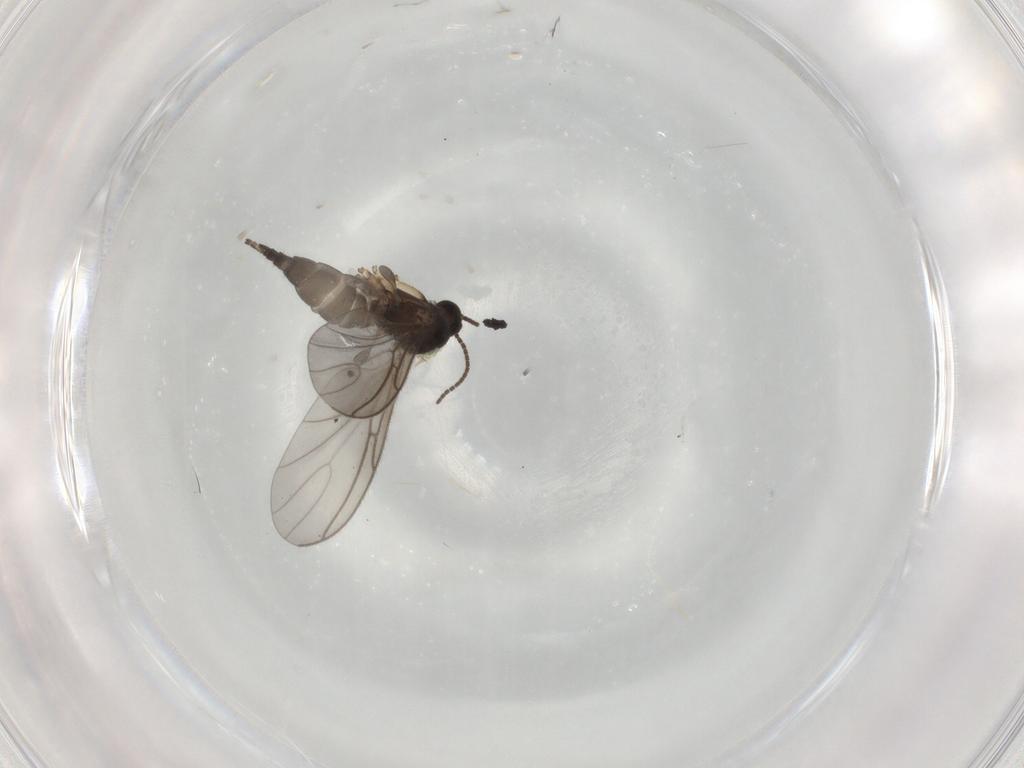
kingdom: Animalia
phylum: Arthropoda
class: Insecta
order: Diptera
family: Sciaridae
